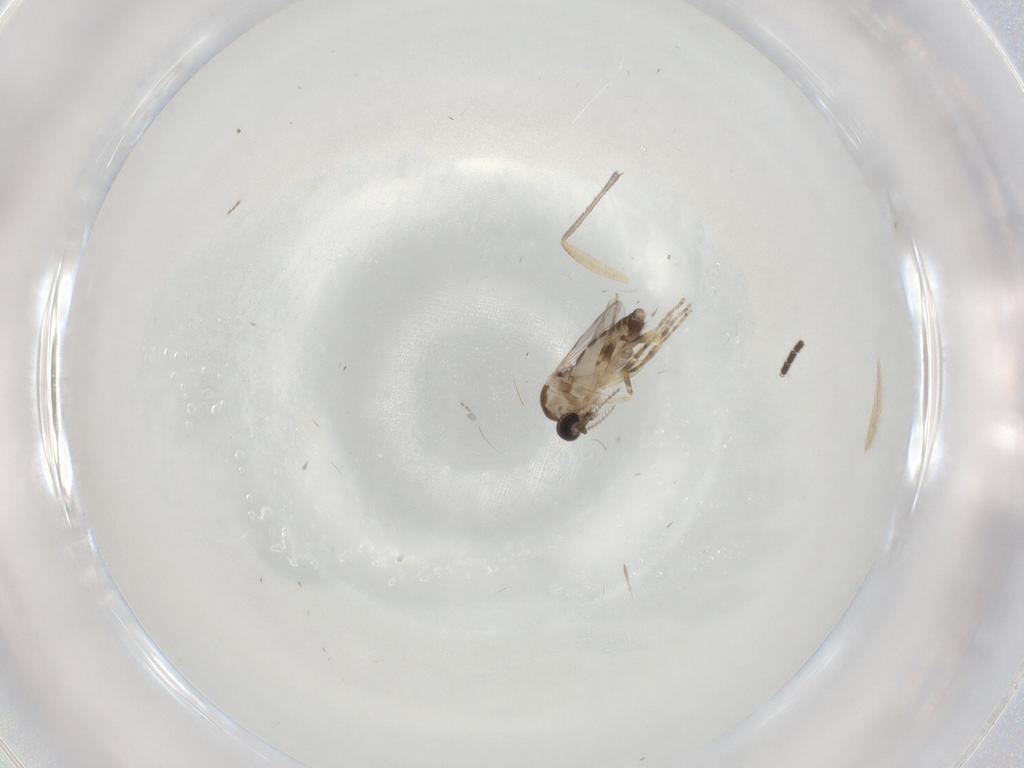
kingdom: Animalia
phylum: Arthropoda
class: Insecta
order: Diptera
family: Ceratopogonidae
